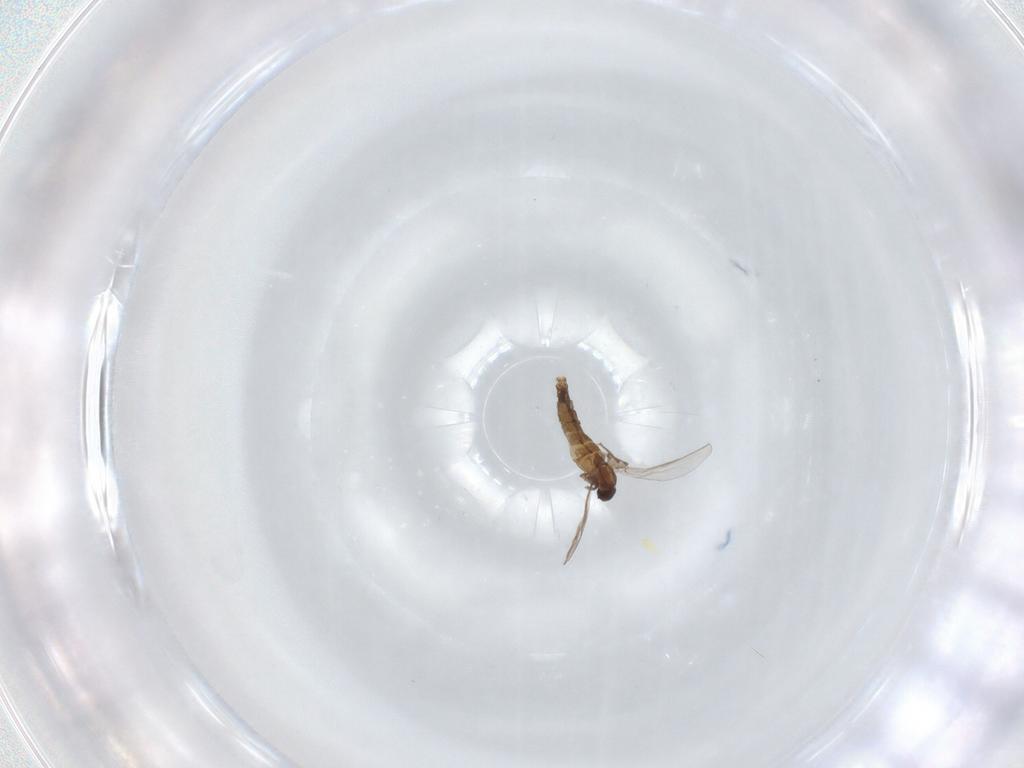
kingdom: Animalia
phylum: Arthropoda
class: Insecta
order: Diptera
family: Chironomidae
